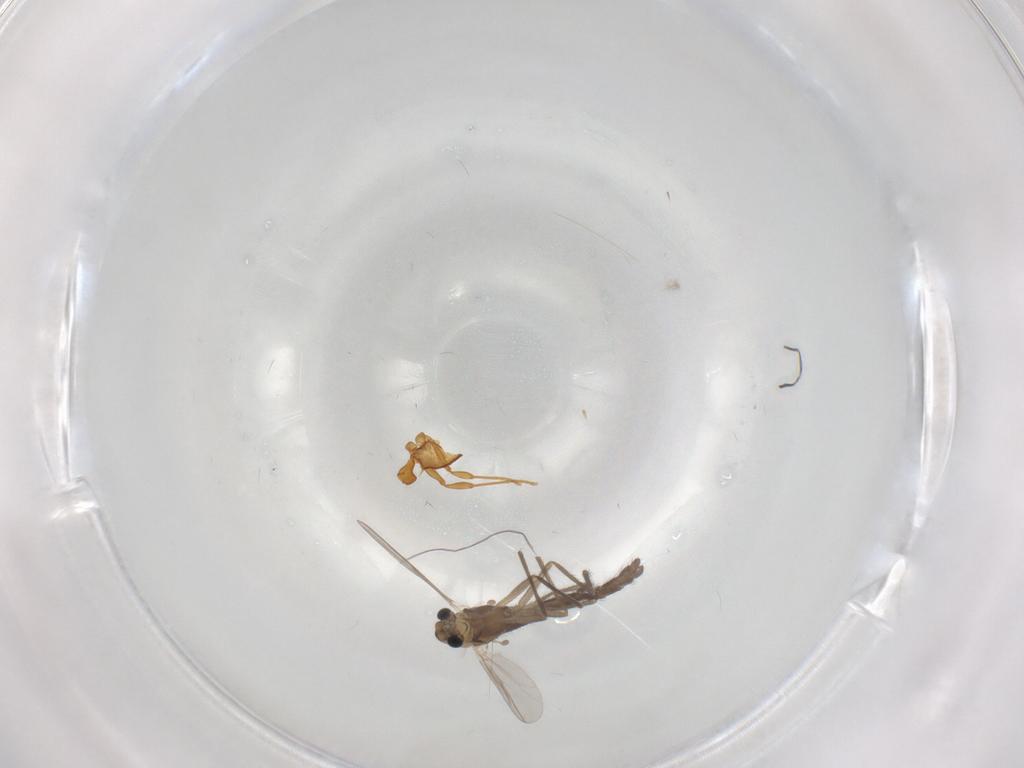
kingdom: Animalia
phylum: Arthropoda
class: Insecta
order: Diptera
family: Chironomidae
